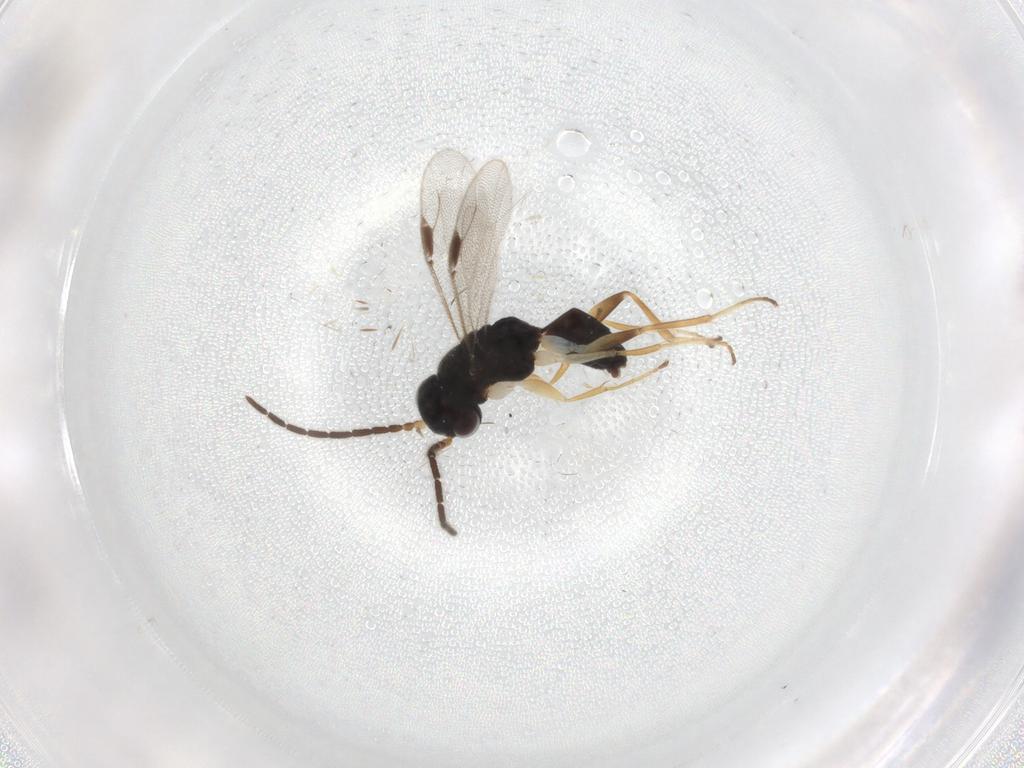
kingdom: Animalia
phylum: Arthropoda
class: Insecta
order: Hymenoptera
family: Dryinidae
